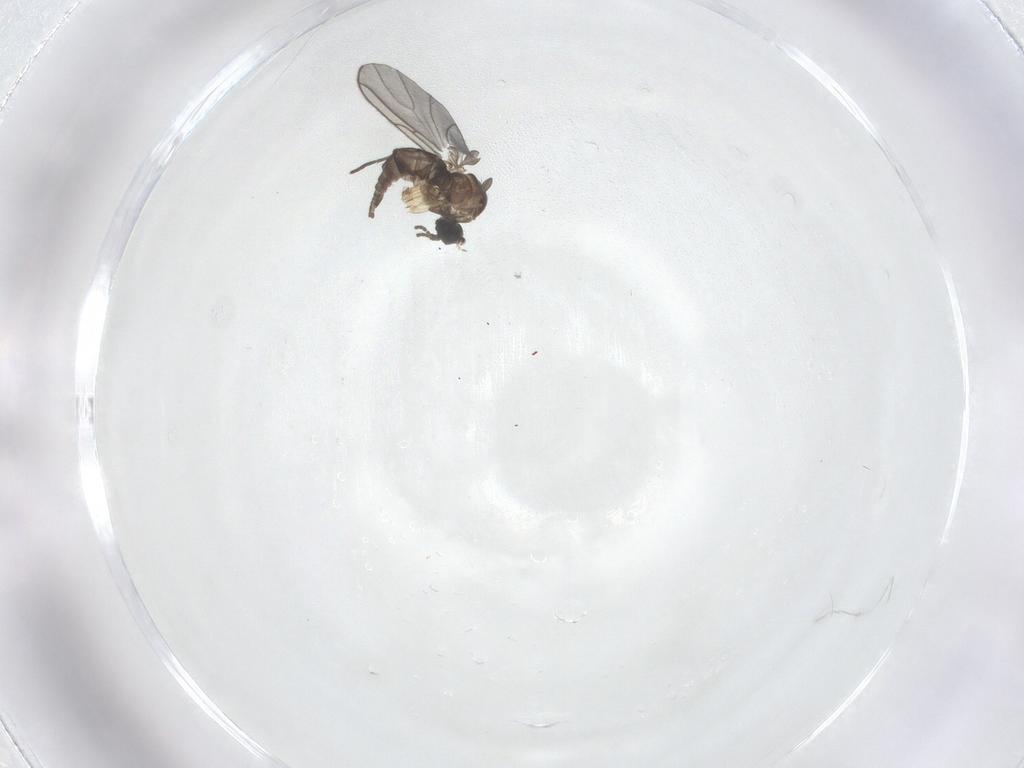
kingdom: Animalia
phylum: Arthropoda
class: Insecta
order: Diptera
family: Sciaridae
